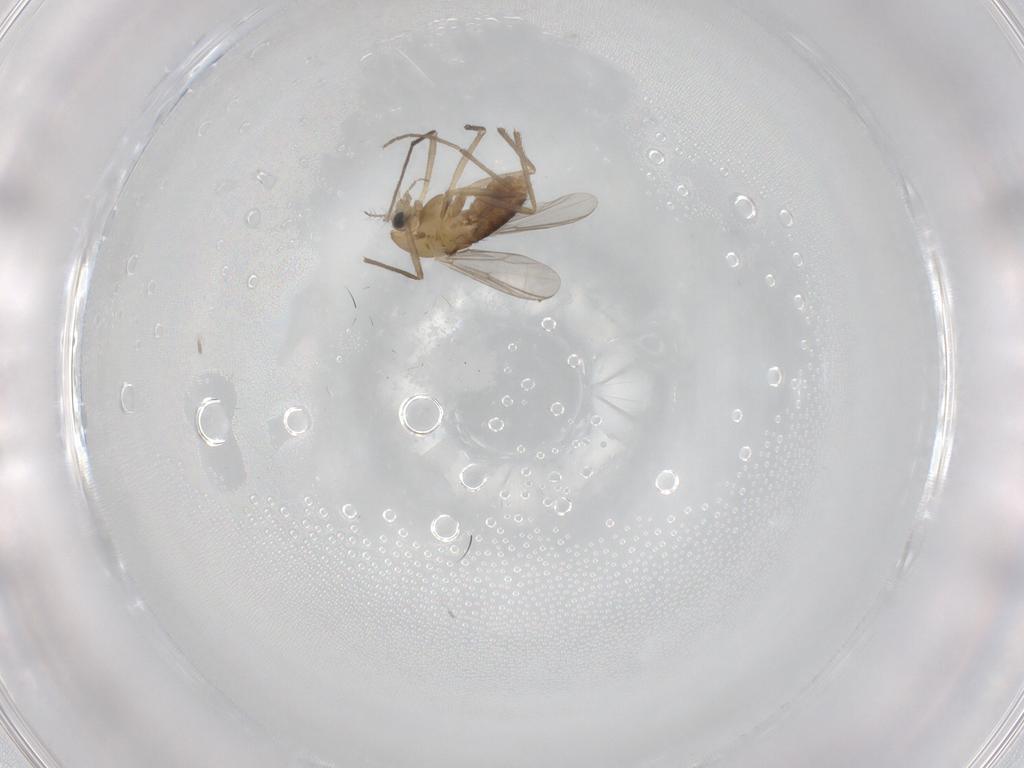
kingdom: Animalia
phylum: Arthropoda
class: Insecta
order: Diptera
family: Chironomidae
